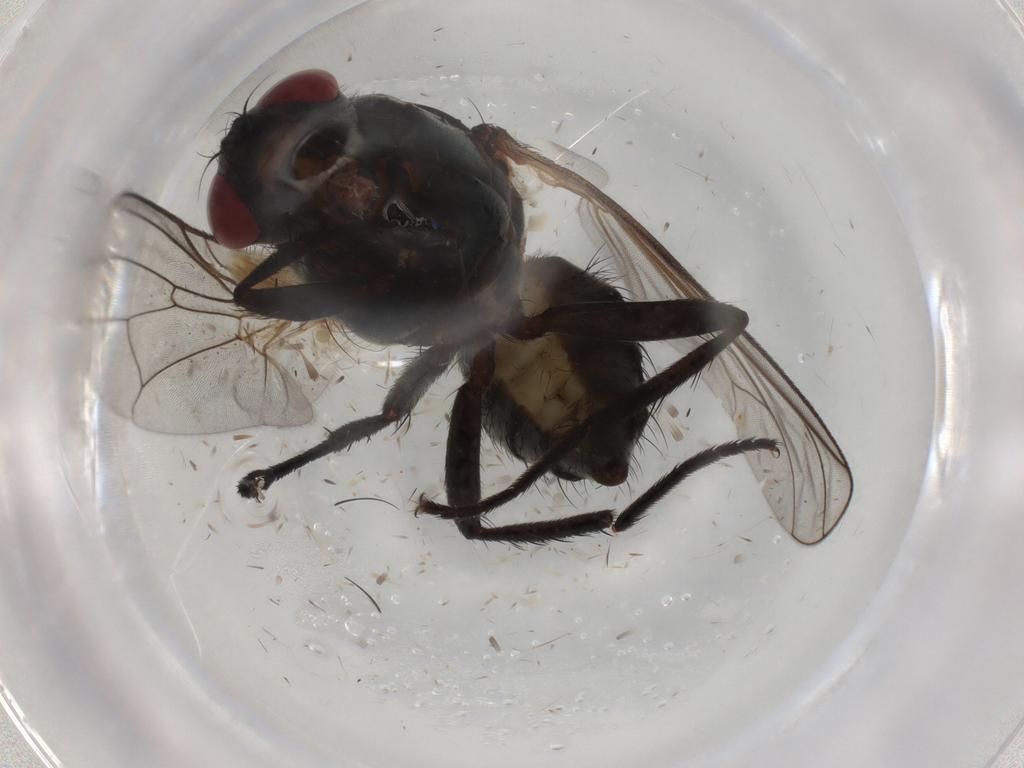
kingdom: Animalia
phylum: Arthropoda
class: Insecta
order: Diptera
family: Anthomyiidae
